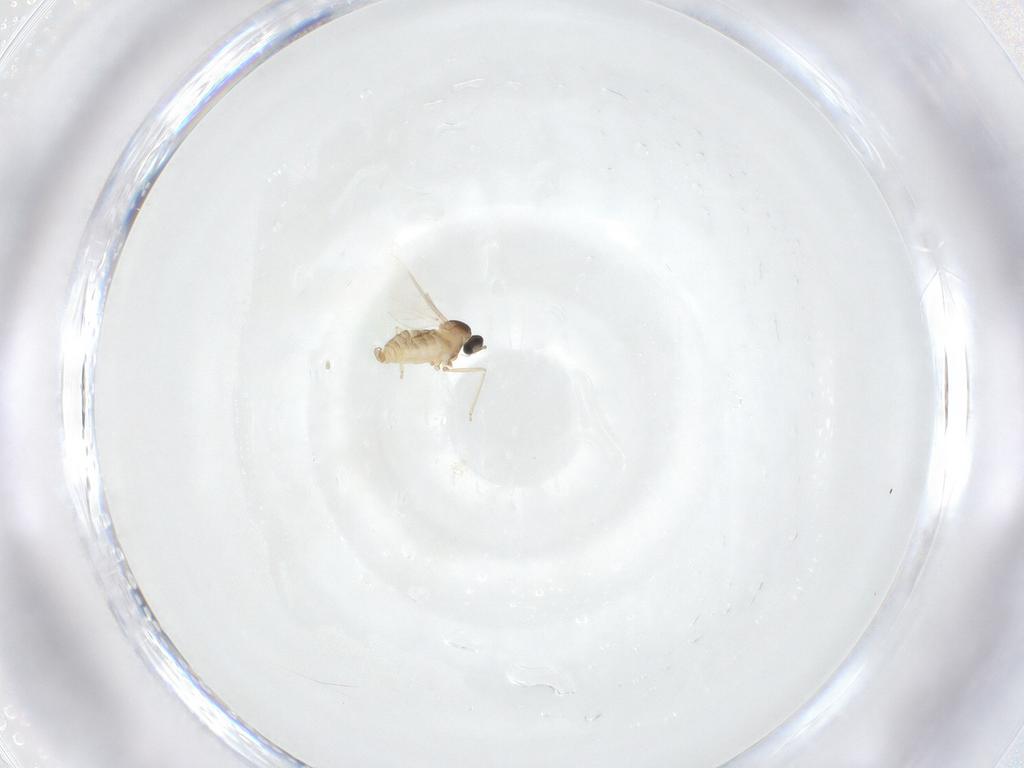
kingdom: Animalia
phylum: Arthropoda
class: Insecta
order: Diptera
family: Cecidomyiidae
